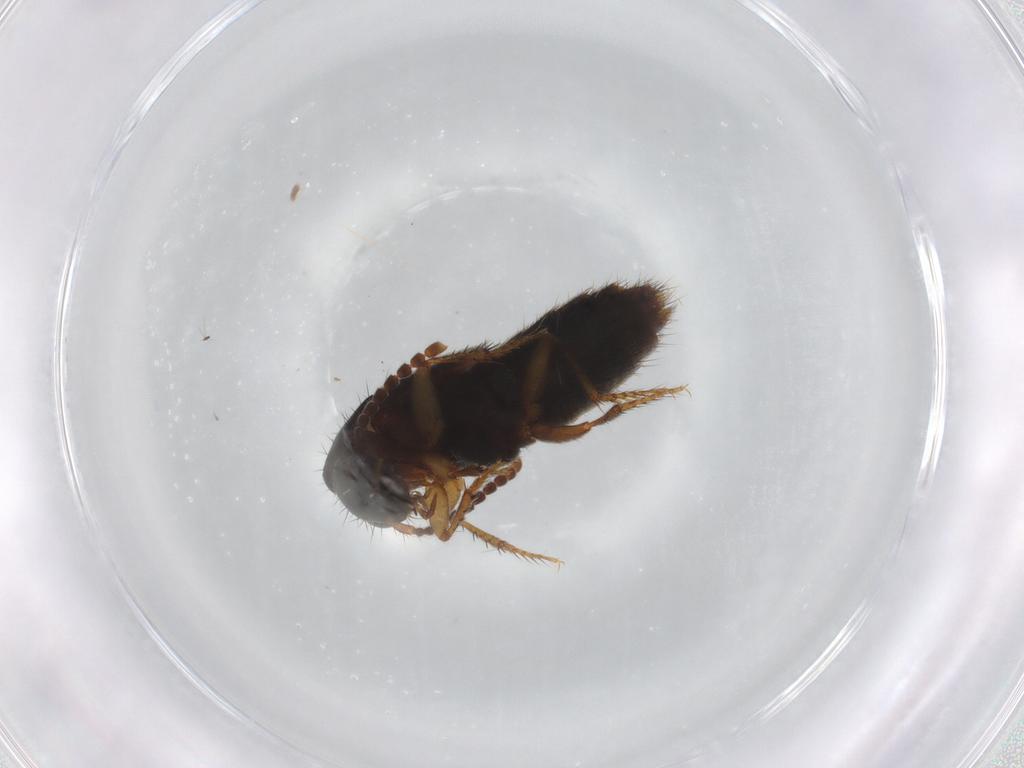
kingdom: Animalia
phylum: Arthropoda
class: Insecta
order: Coleoptera
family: Staphylinidae
